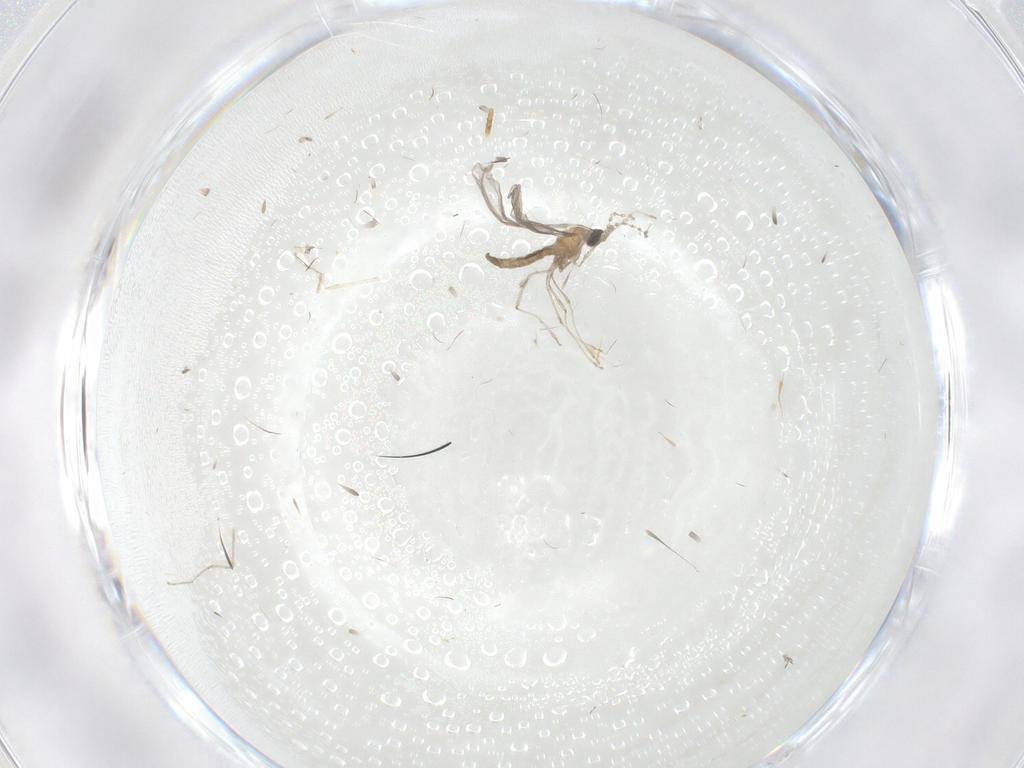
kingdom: Animalia
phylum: Arthropoda
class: Insecta
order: Diptera
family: Cecidomyiidae
